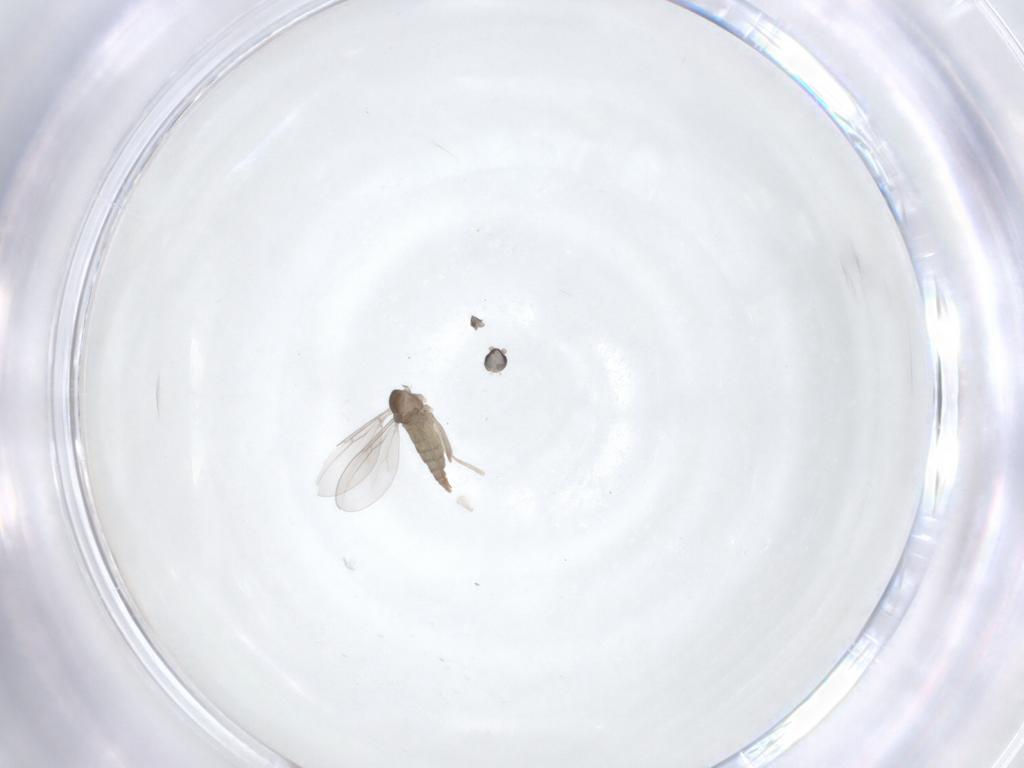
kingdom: Animalia
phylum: Arthropoda
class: Insecta
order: Diptera
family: Cecidomyiidae
